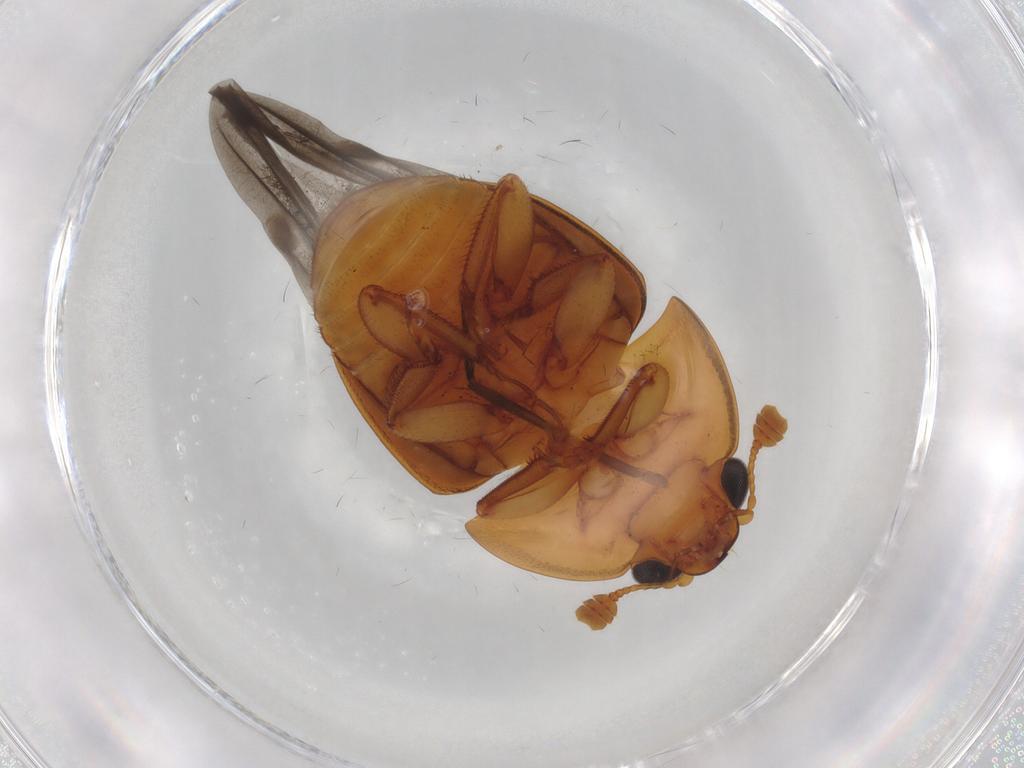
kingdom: Animalia
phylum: Arthropoda
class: Insecta
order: Coleoptera
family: Nitidulidae
